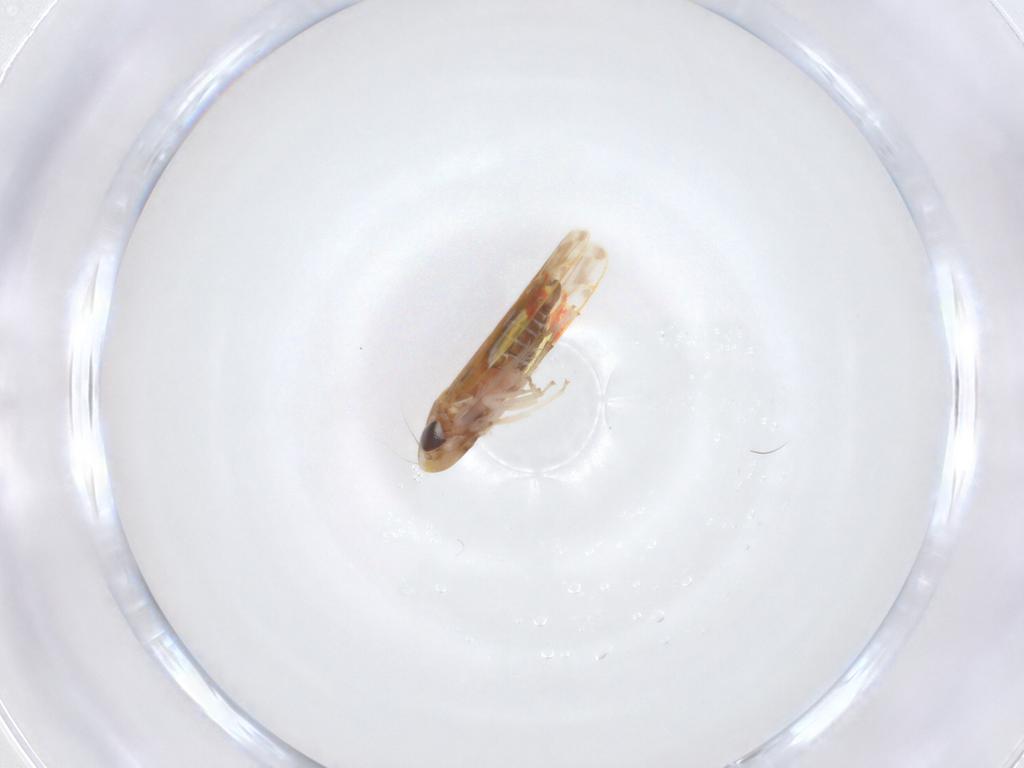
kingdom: Animalia
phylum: Arthropoda
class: Insecta
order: Hemiptera
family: Cicadellidae
